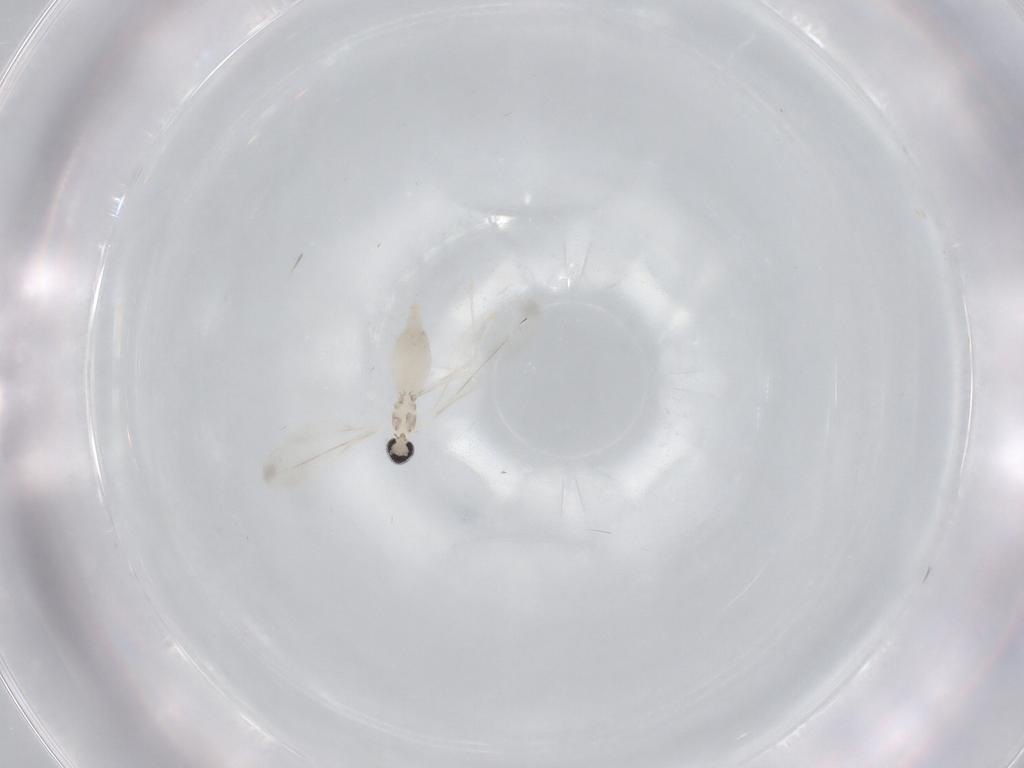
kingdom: Animalia
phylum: Arthropoda
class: Insecta
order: Diptera
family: Cecidomyiidae
